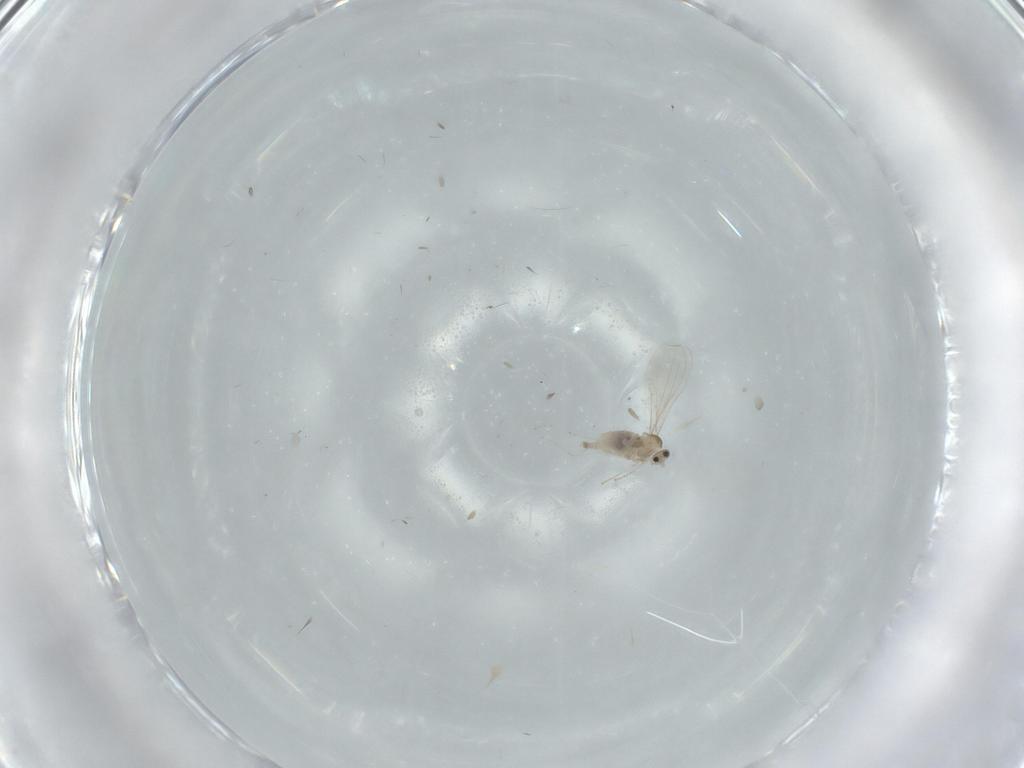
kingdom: Animalia
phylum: Arthropoda
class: Insecta
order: Diptera
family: Cecidomyiidae
